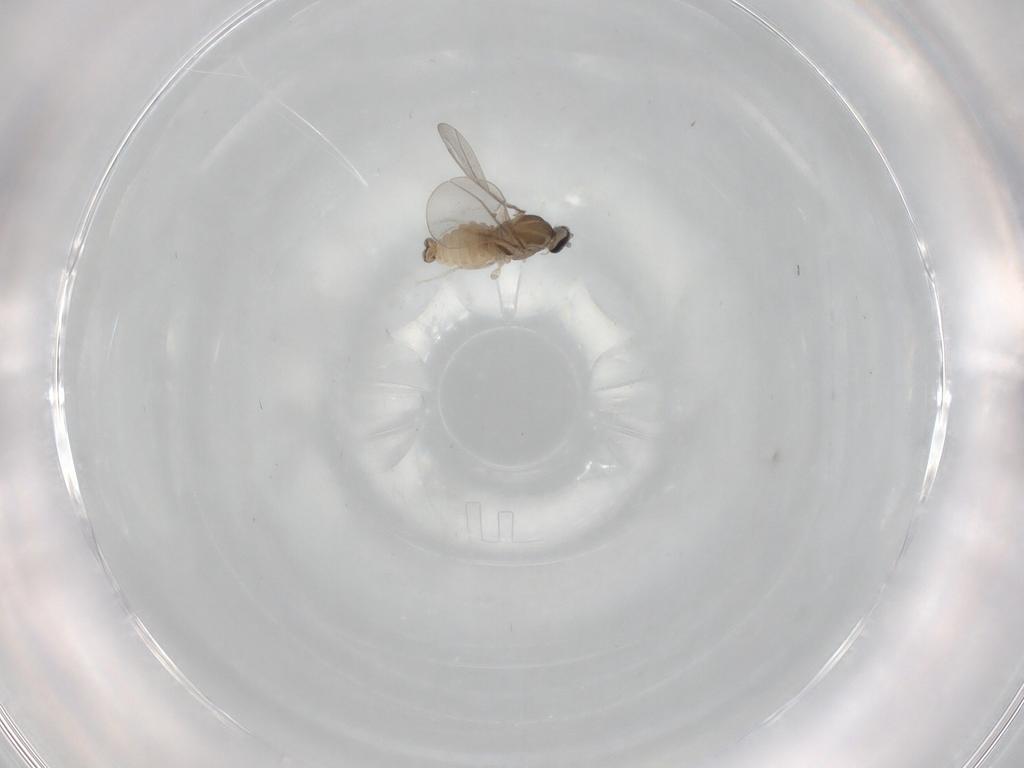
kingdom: Animalia
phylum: Arthropoda
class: Insecta
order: Diptera
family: Cecidomyiidae
